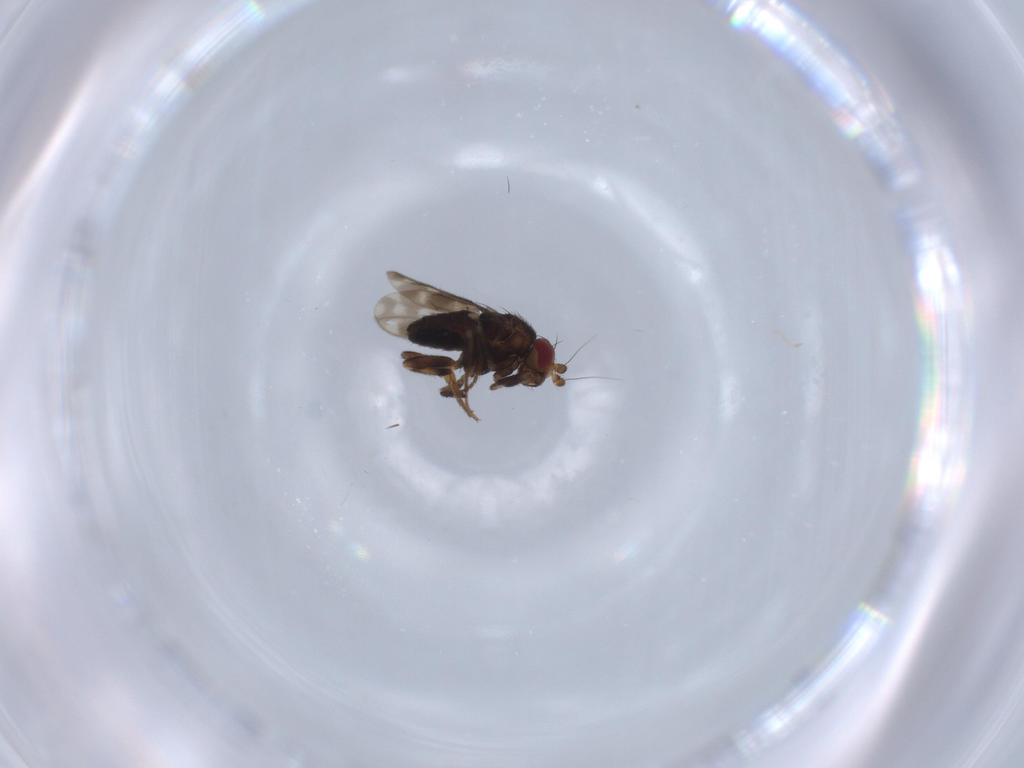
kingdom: Animalia
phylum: Arthropoda
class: Insecta
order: Diptera
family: Sphaeroceridae
